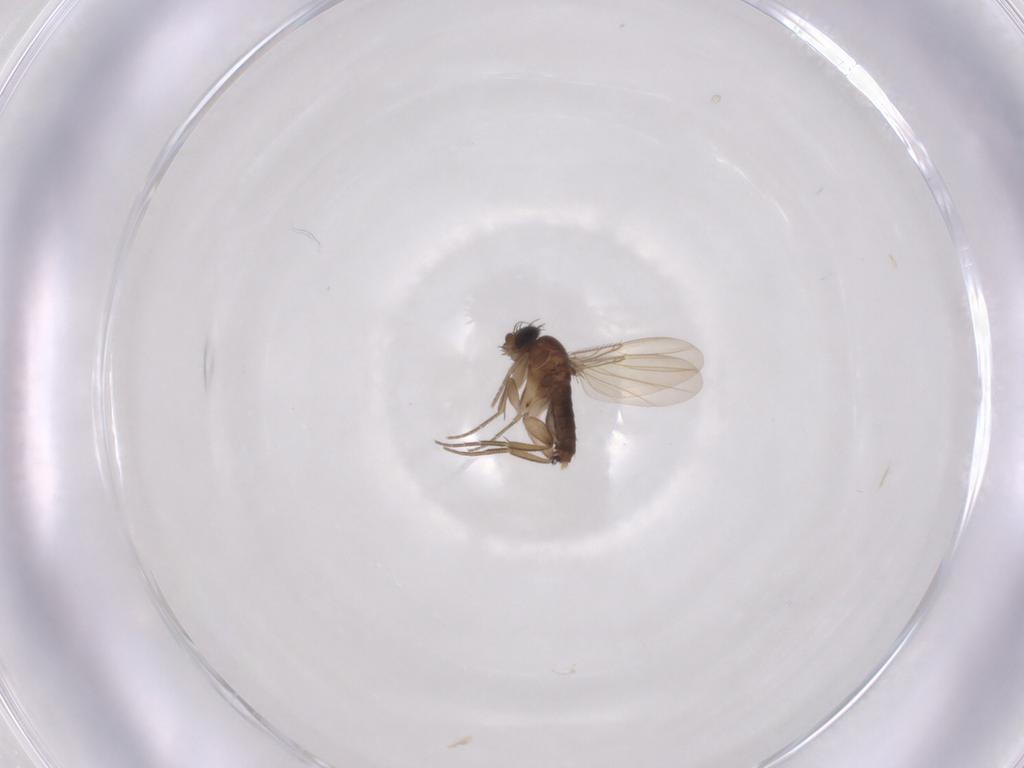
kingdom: Animalia
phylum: Arthropoda
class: Insecta
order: Diptera
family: Phoridae
